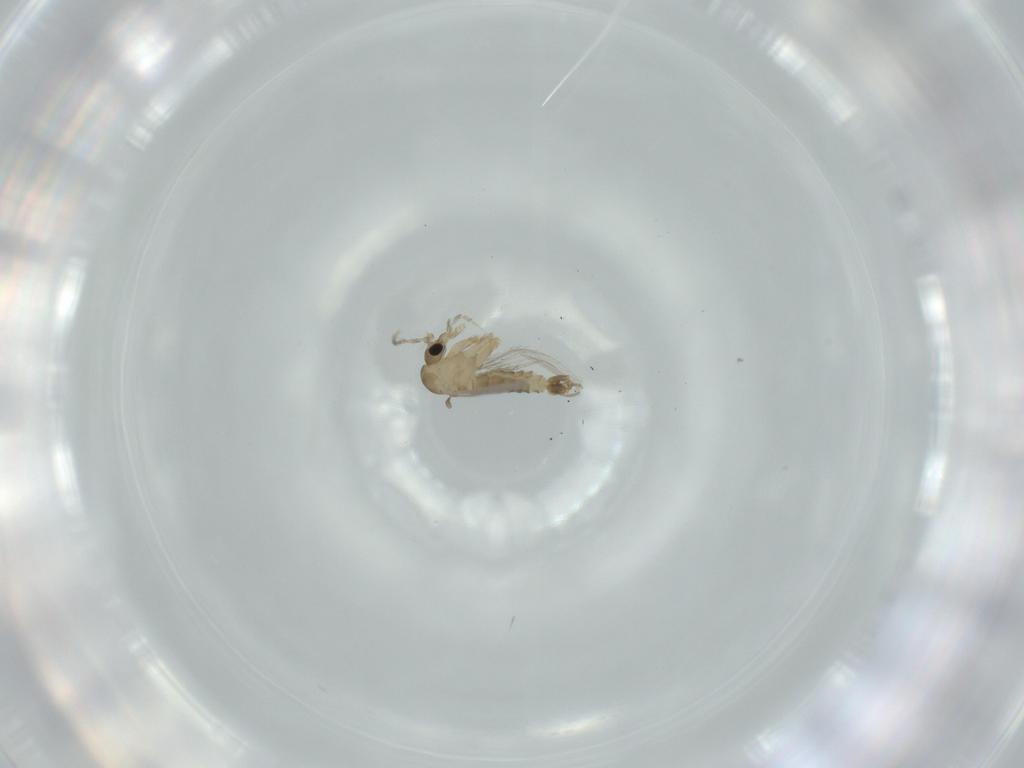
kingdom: Animalia
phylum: Arthropoda
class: Insecta
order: Diptera
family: Psychodidae
